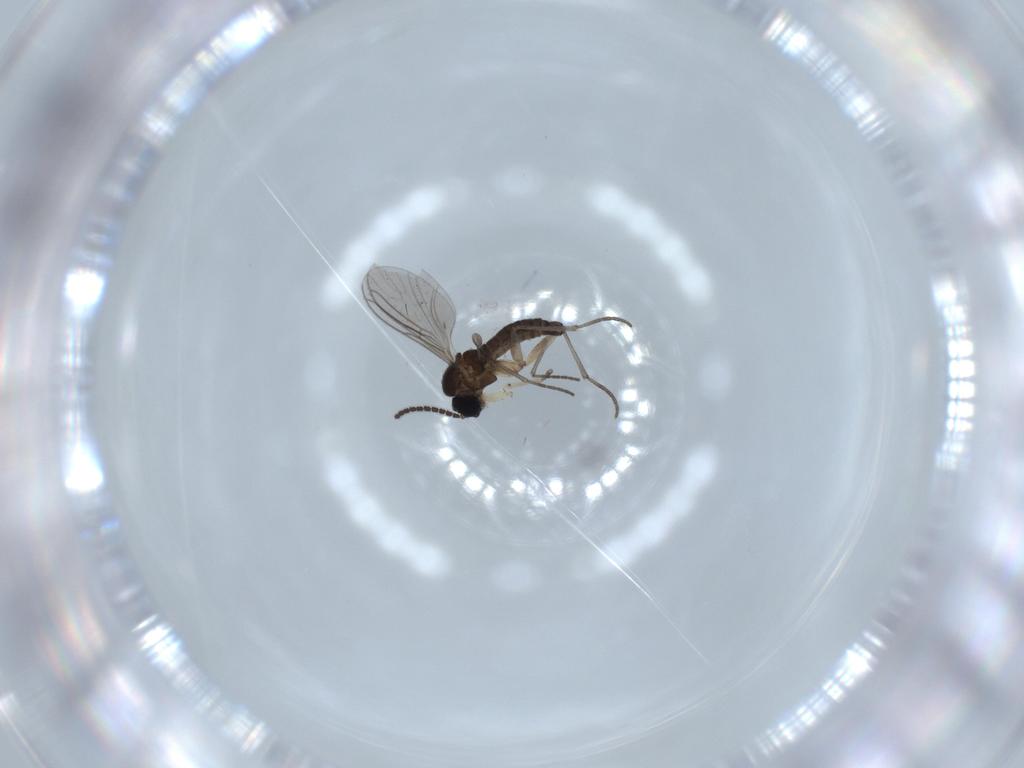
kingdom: Animalia
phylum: Arthropoda
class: Insecta
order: Diptera
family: Sciaridae
